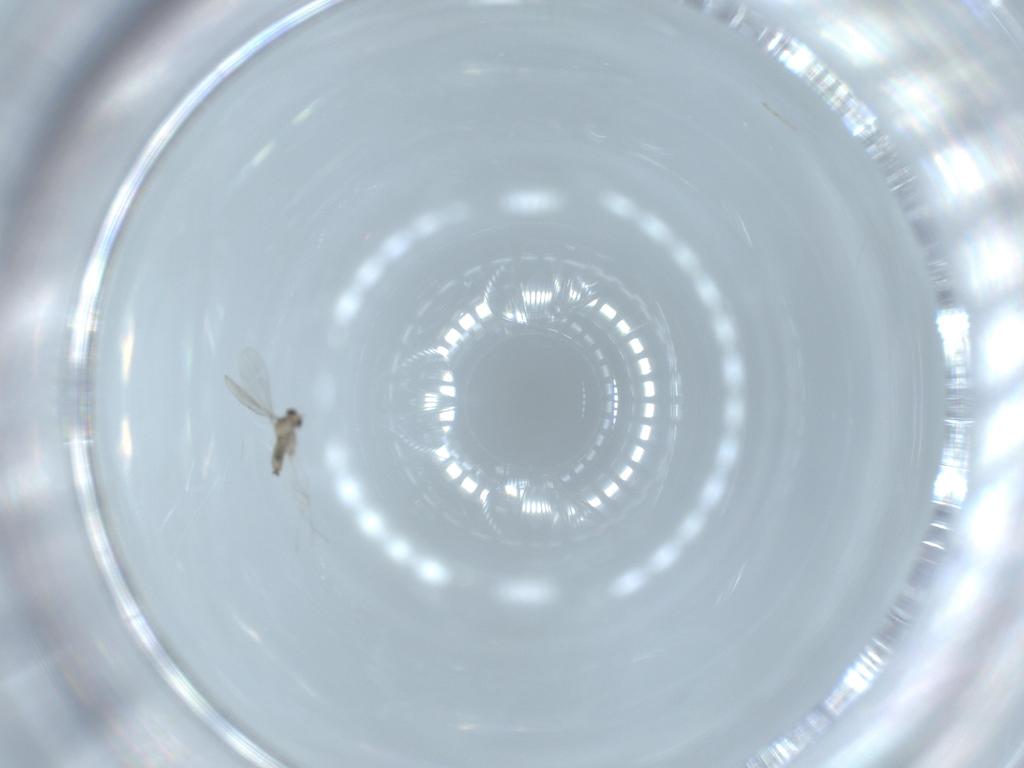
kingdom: Animalia
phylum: Arthropoda
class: Insecta
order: Diptera
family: Cecidomyiidae
